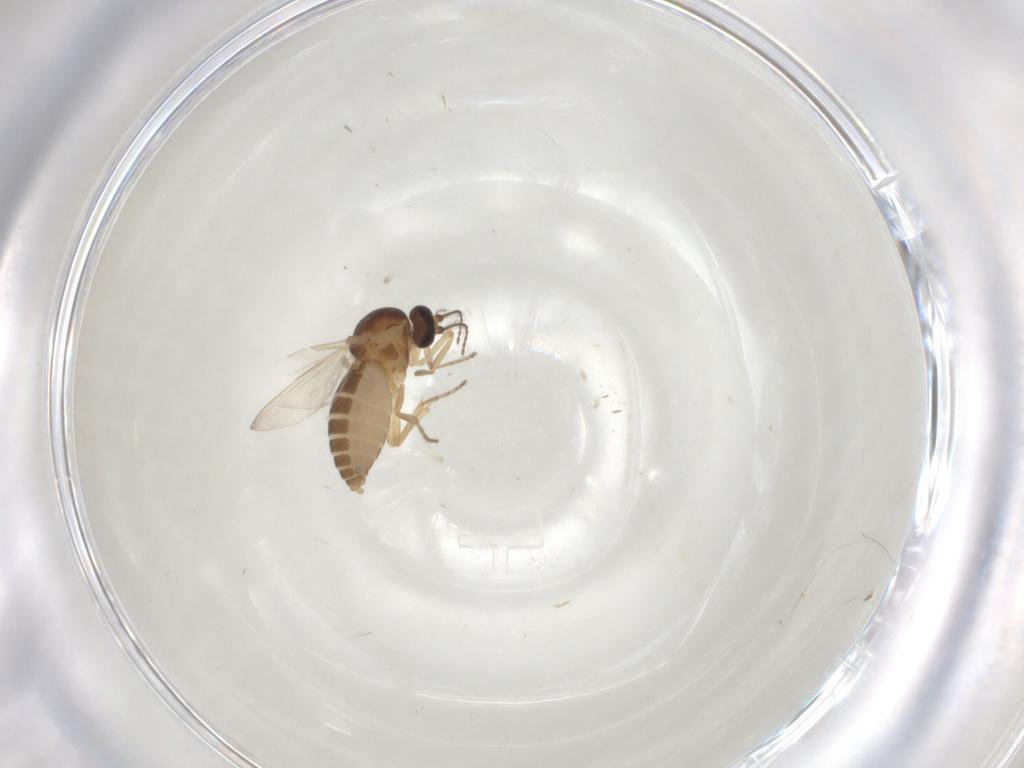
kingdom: Animalia
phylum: Arthropoda
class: Insecta
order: Diptera
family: Ceratopogonidae
